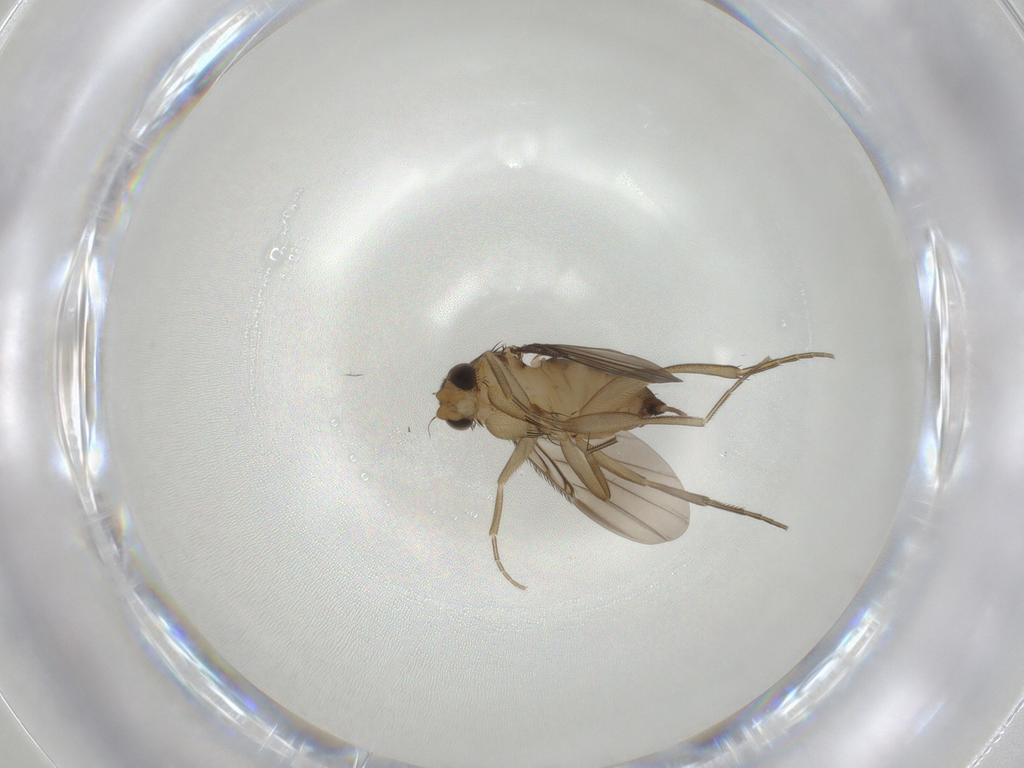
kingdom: Animalia
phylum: Arthropoda
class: Insecta
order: Diptera
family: Phoridae
